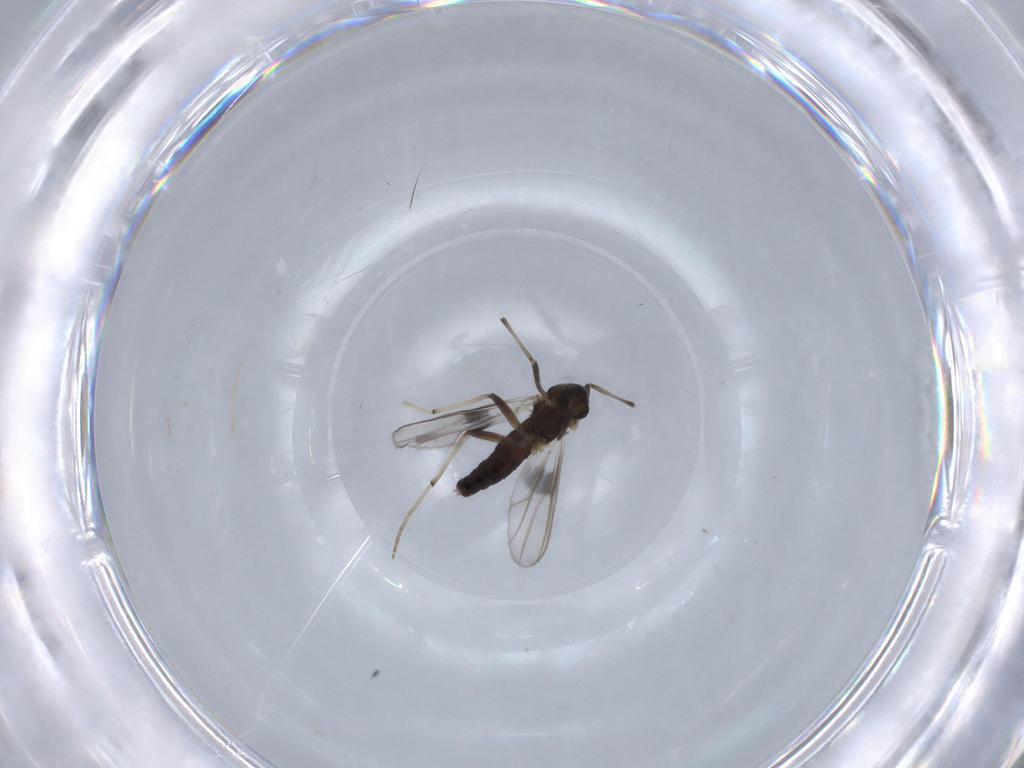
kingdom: Animalia
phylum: Arthropoda
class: Insecta
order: Diptera
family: Chironomidae
